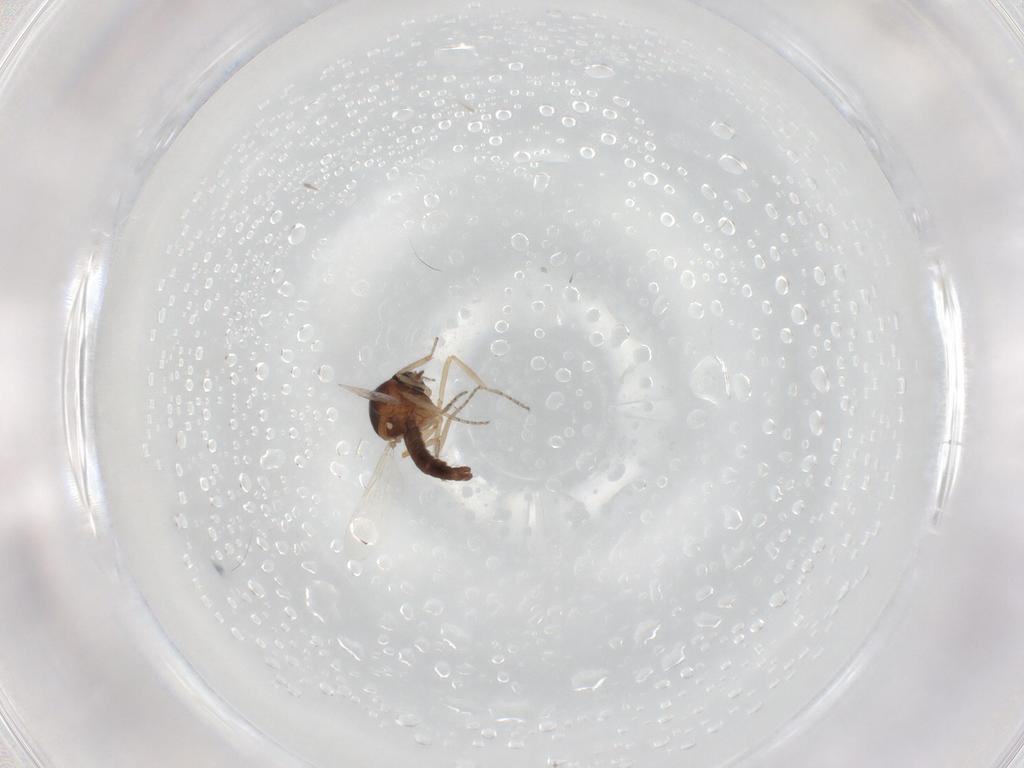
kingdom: Animalia
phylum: Arthropoda
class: Insecta
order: Diptera
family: Ceratopogonidae
